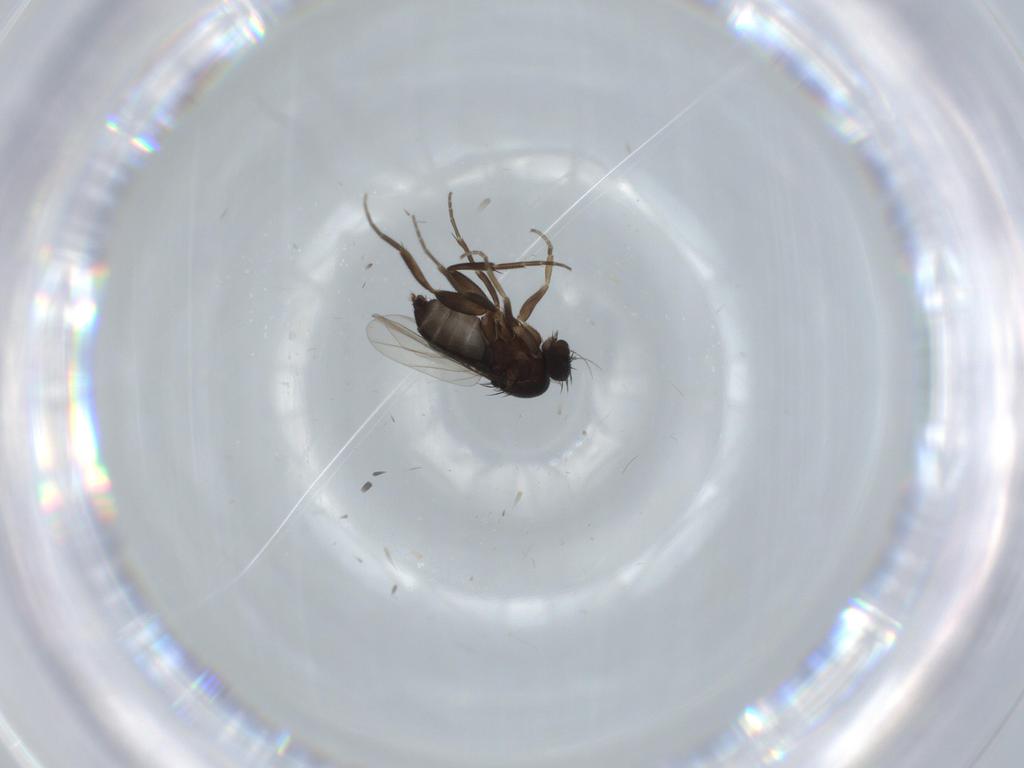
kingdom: Animalia
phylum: Arthropoda
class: Insecta
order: Diptera
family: Phoridae
